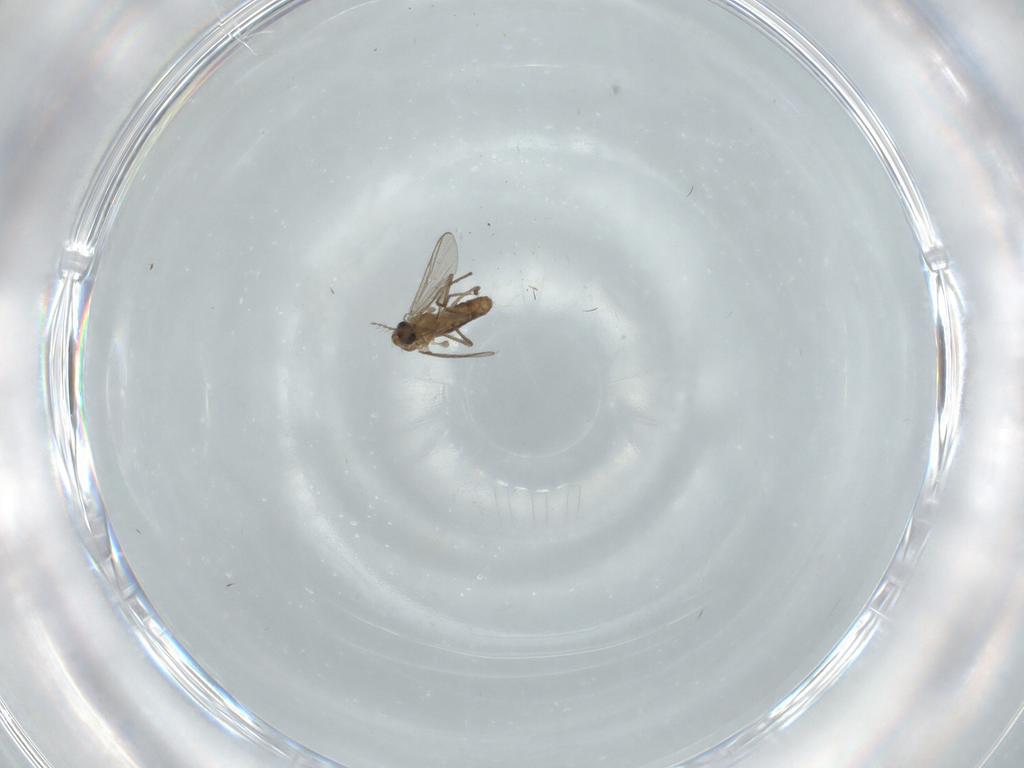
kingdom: Animalia
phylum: Arthropoda
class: Insecta
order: Diptera
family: Chironomidae
